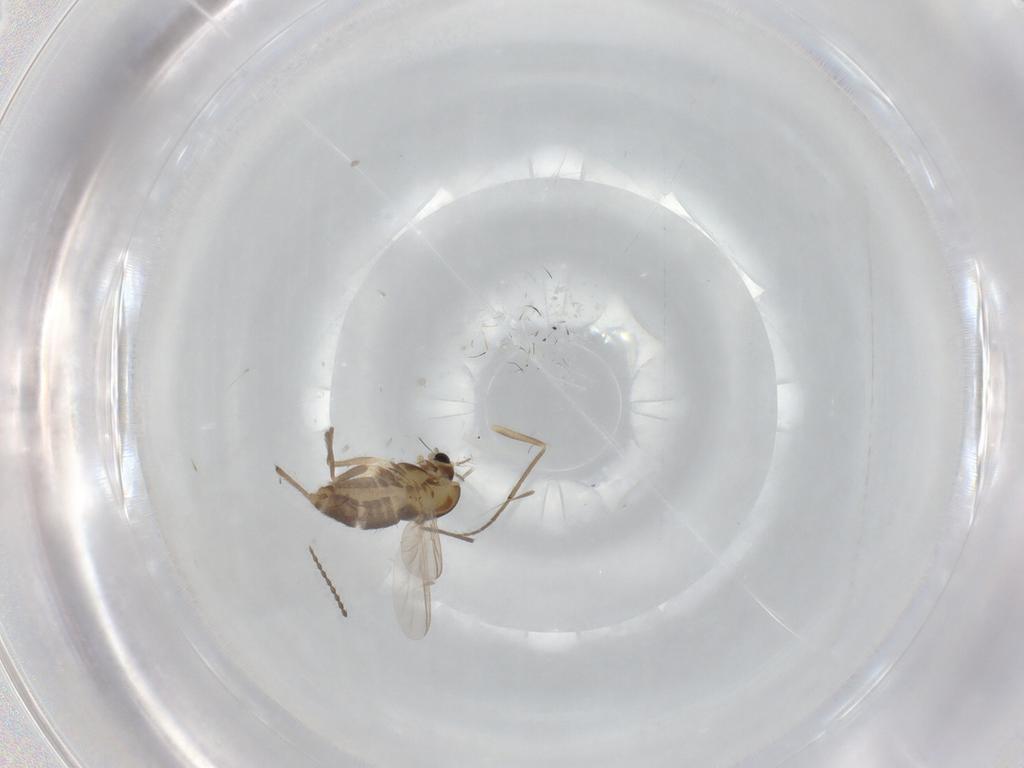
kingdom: Animalia
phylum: Arthropoda
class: Insecta
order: Diptera
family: Chironomidae
